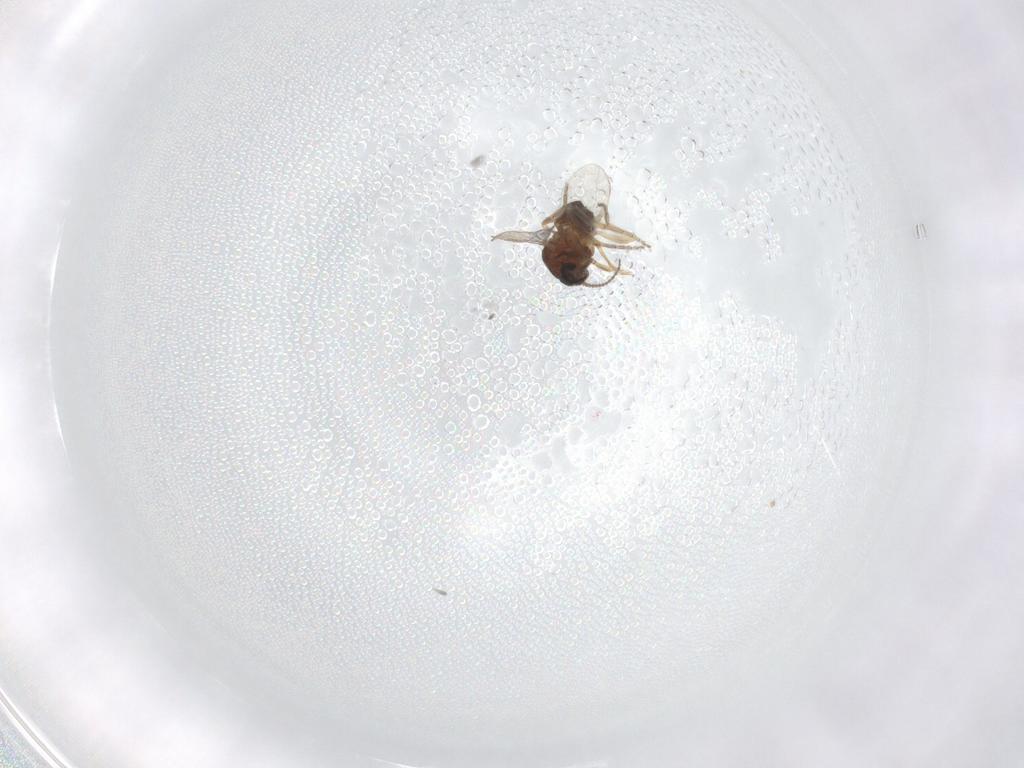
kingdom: Animalia
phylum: Arthropoda
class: Insecta
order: Diptera
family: Ceratopogonidae
